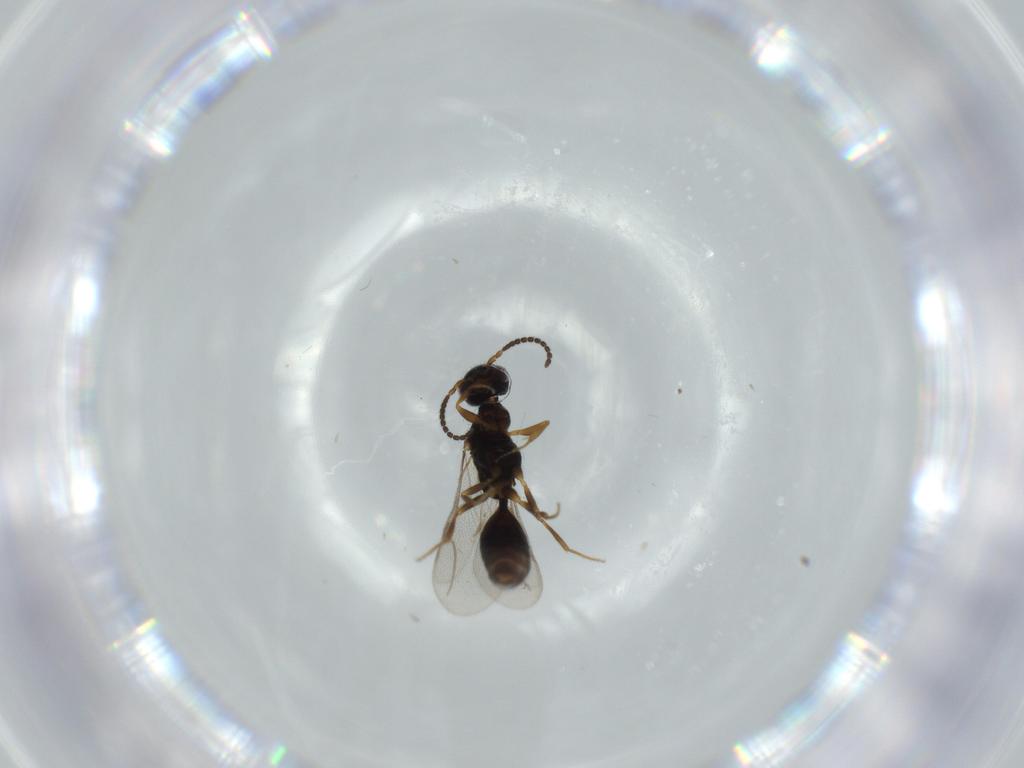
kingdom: Animalia
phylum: Arthropoda
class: Insecta
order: Hymenoptera
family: Bethylidae
